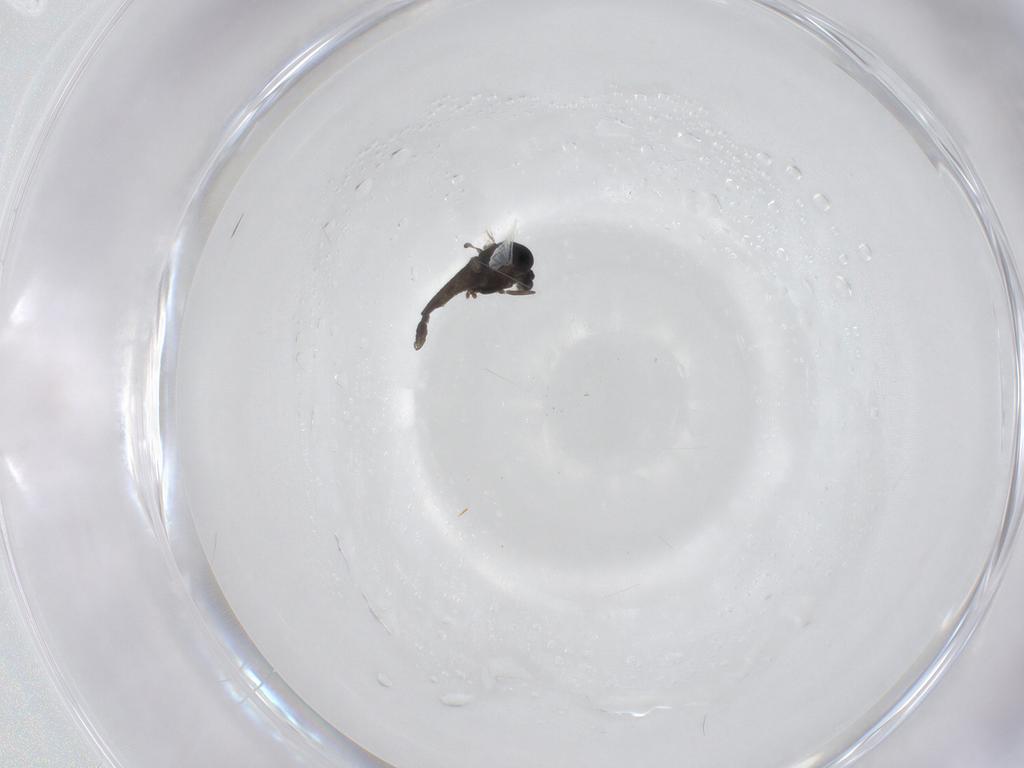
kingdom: Animalia
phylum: Arthropoda
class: Insecta
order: Diptera
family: Chironomidae
